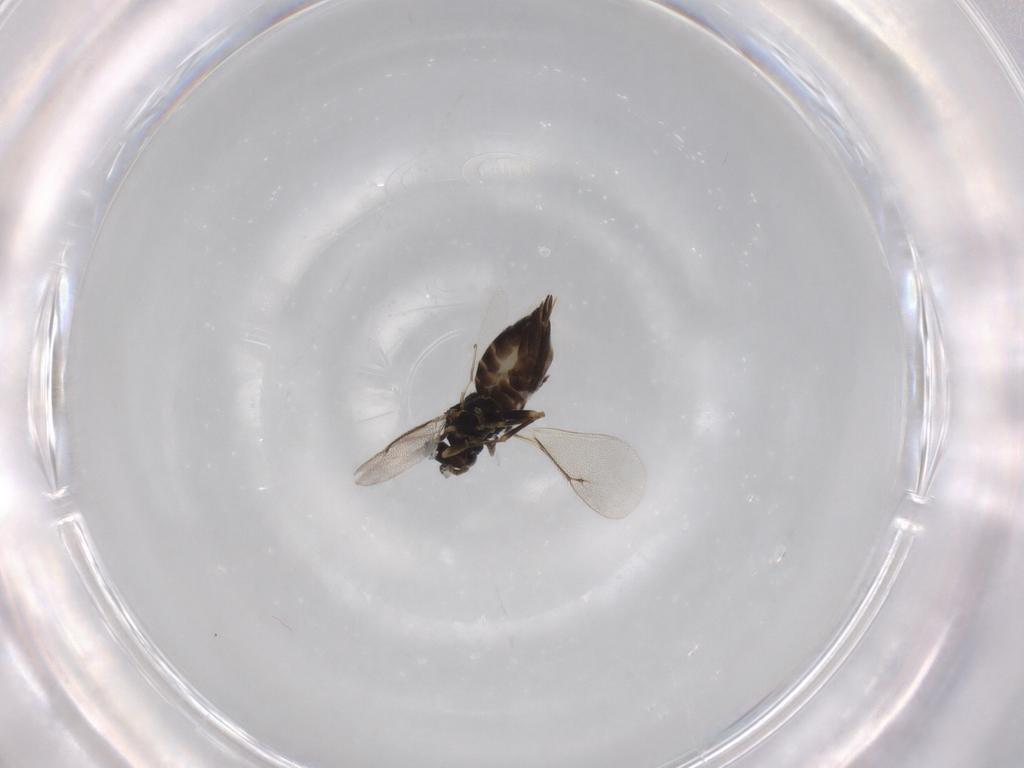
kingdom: Animalia
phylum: Arthropoda
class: Insecta
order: Hymenoptera
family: Eulophidae
